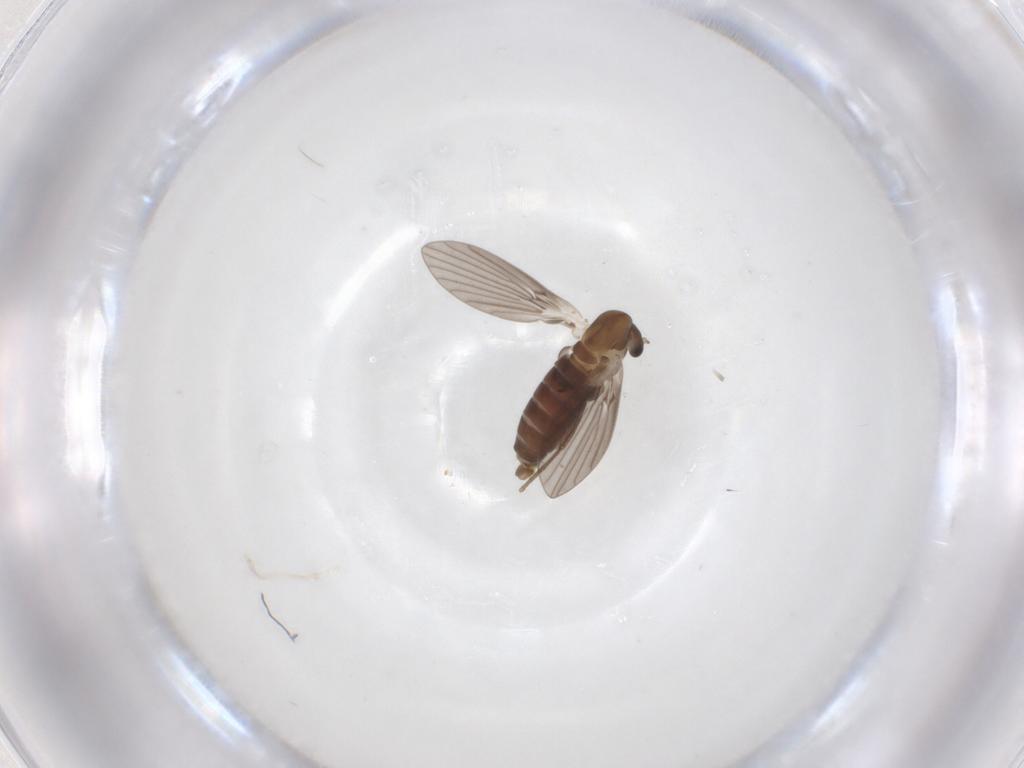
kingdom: Animalia
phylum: Arthropoda
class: Insecta
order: Diptera
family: Psychodidae
